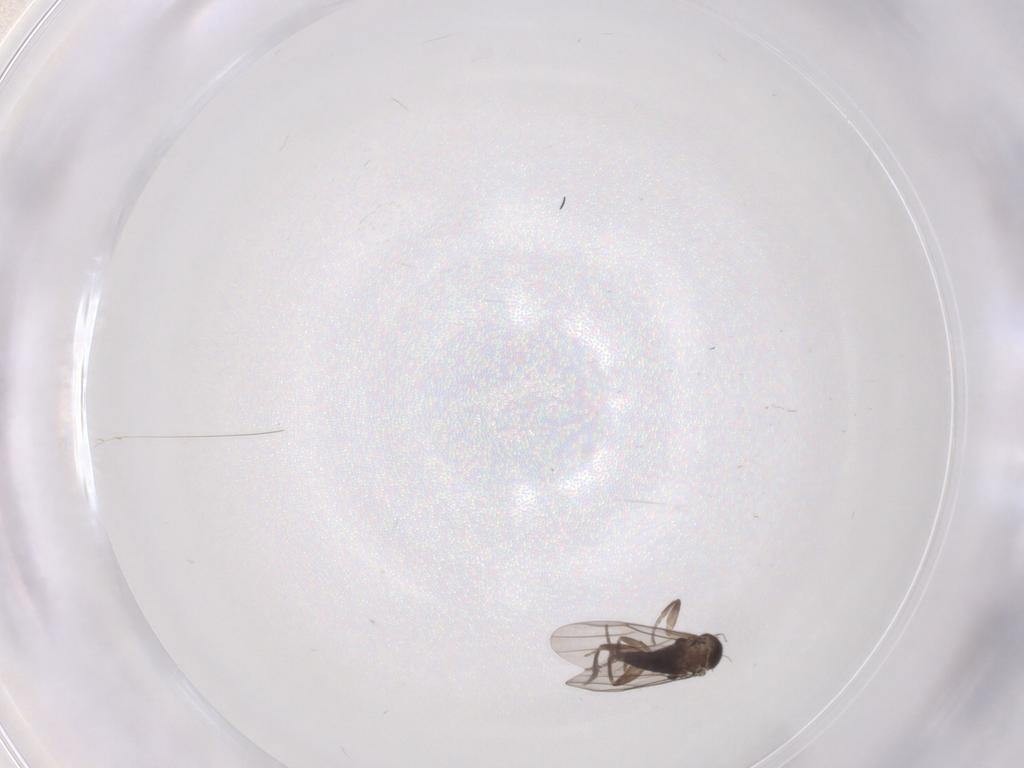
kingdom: Animalia
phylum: Arthropoda
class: Insecta
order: Diptera
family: Phoridae
